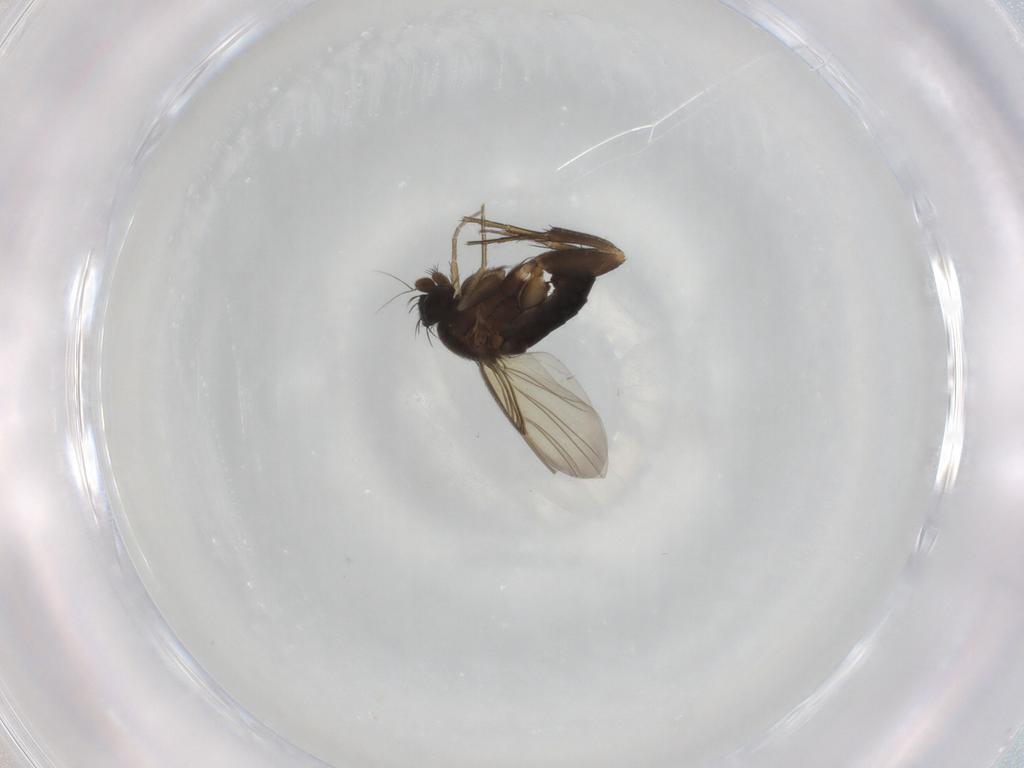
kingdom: Animalia
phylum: Arthropoda
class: Insecta
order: Diptera
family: Phoridae
